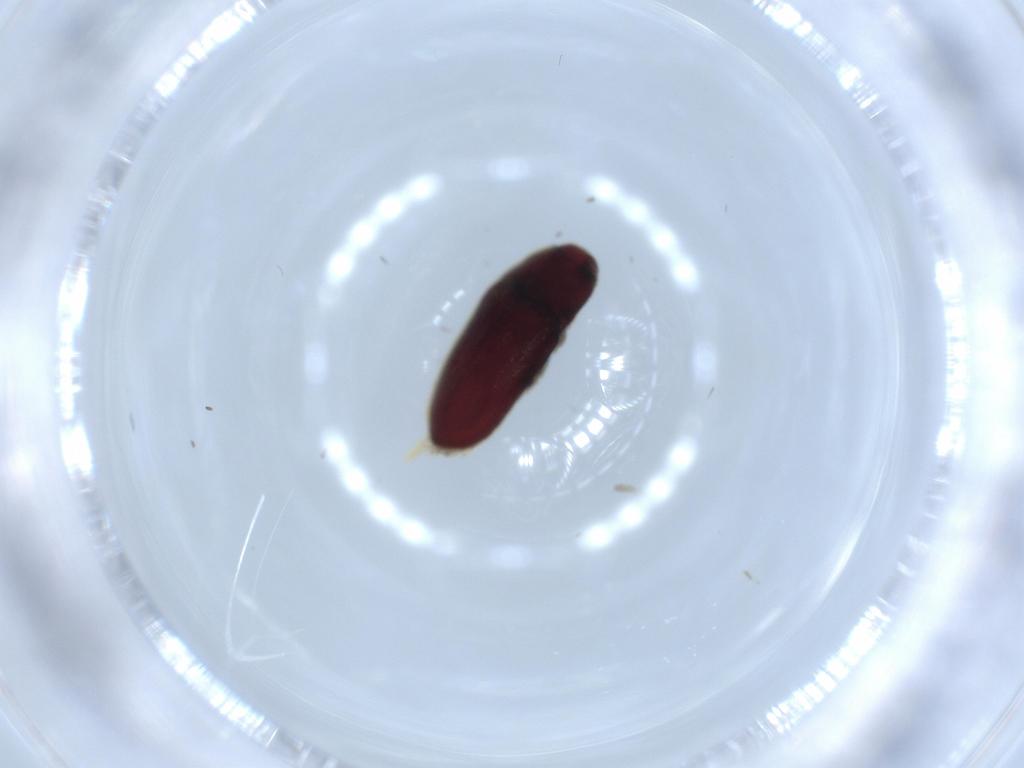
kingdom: Animalia
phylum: Arthropoda
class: Insecta
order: Coleoptera
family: Throscidae
